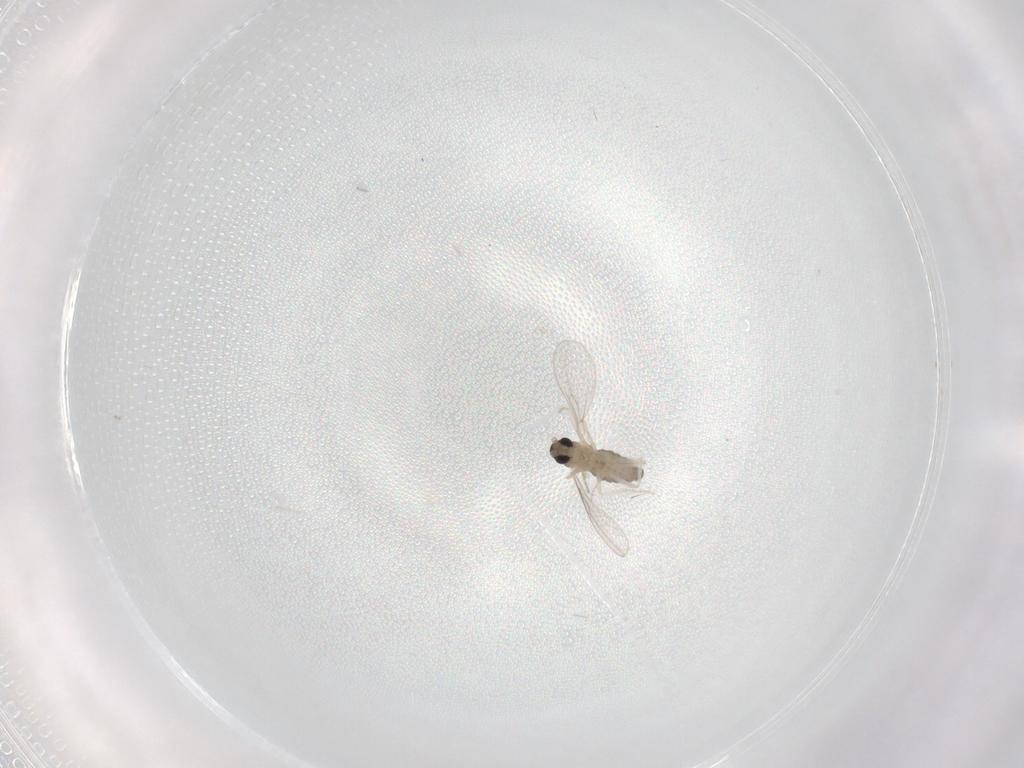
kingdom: Animalia
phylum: Arthropoda
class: Insecta
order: Diptera
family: Cecidomyiidae
